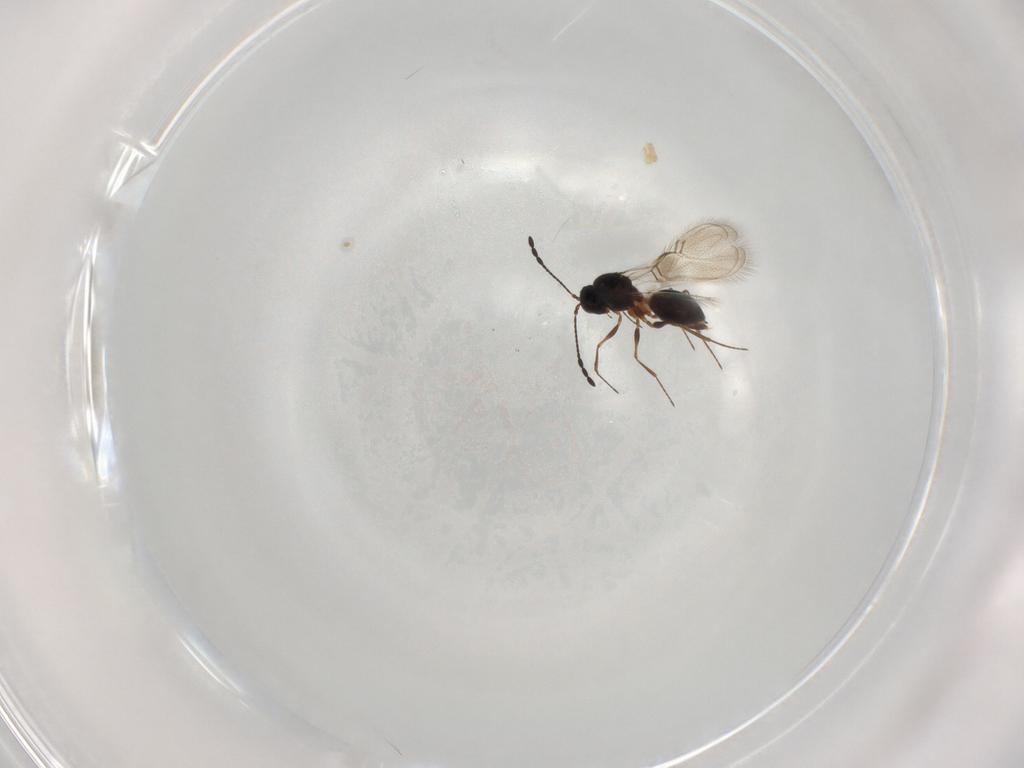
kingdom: Animalia
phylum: Arthropoda
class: Insecta
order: Hymenoptera
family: Figitidae
